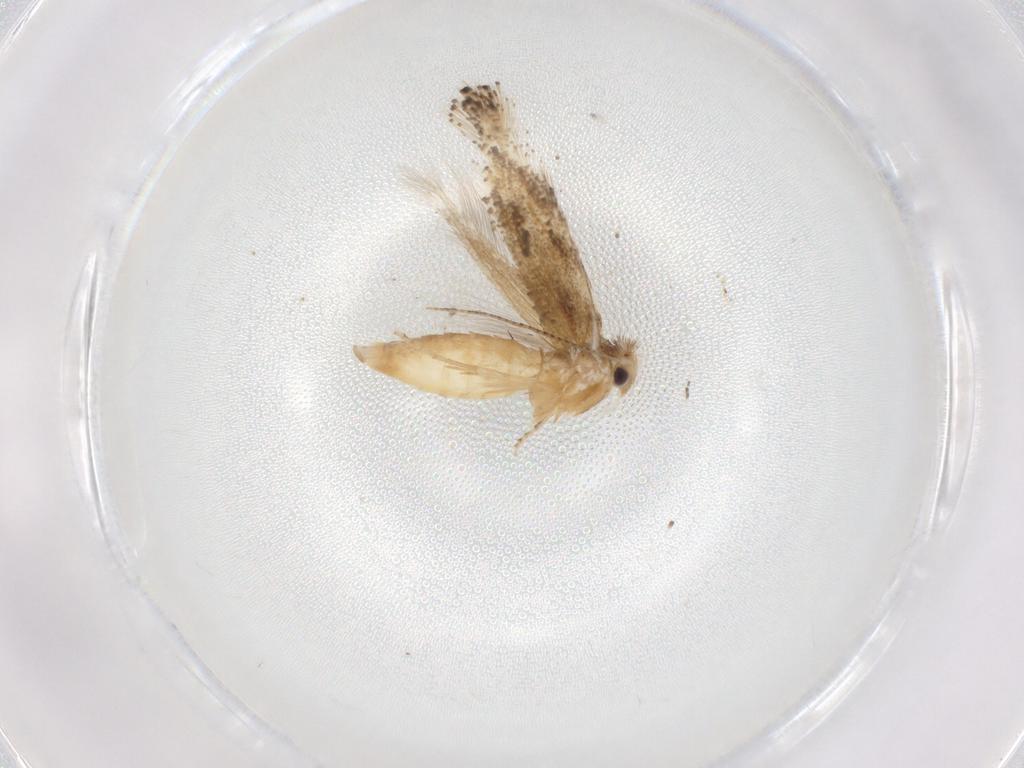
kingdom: Animalia
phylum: Arthropoda
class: Insecta
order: Lepidoptera
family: Bucculatricidae
